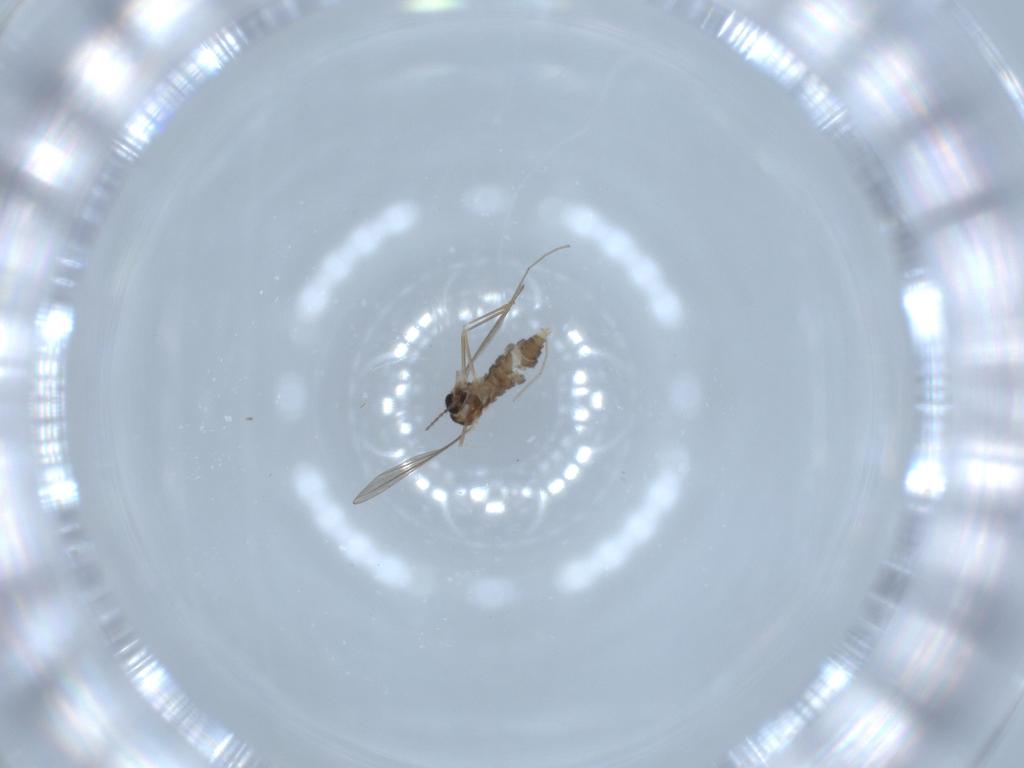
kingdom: Animalia
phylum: Arthropoda
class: Insecta
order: Diptera
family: Cecidomyiidae
